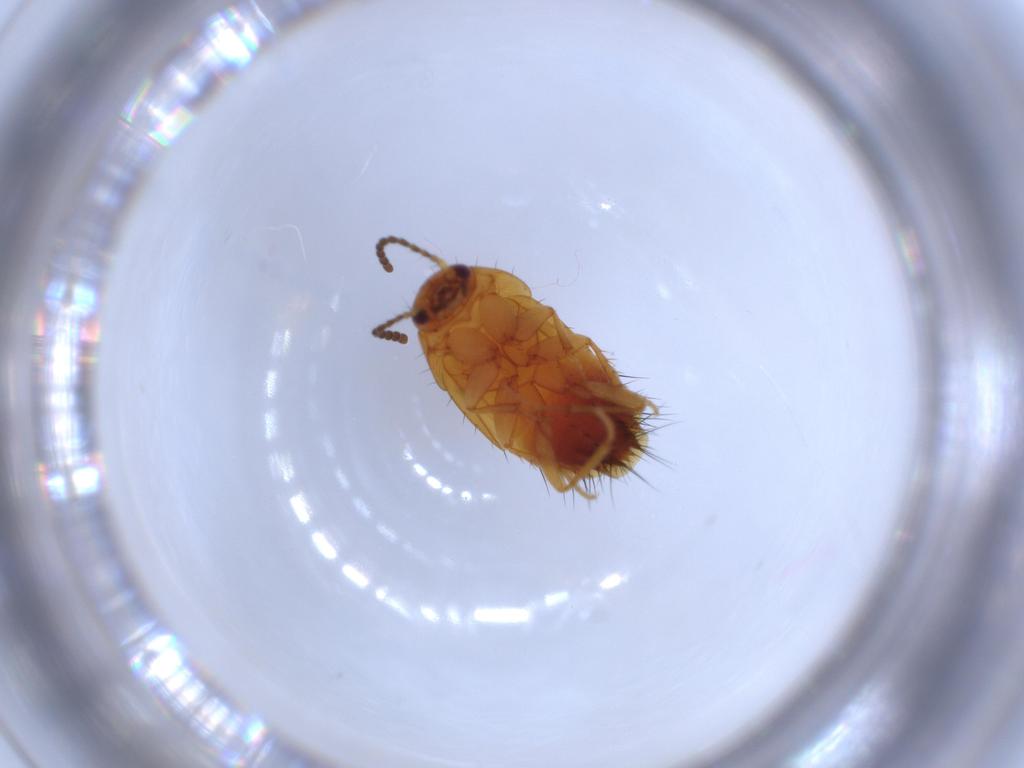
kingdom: Animalia
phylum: Arthropoda
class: Insecta
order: Coleoptera
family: Staphylinidae
